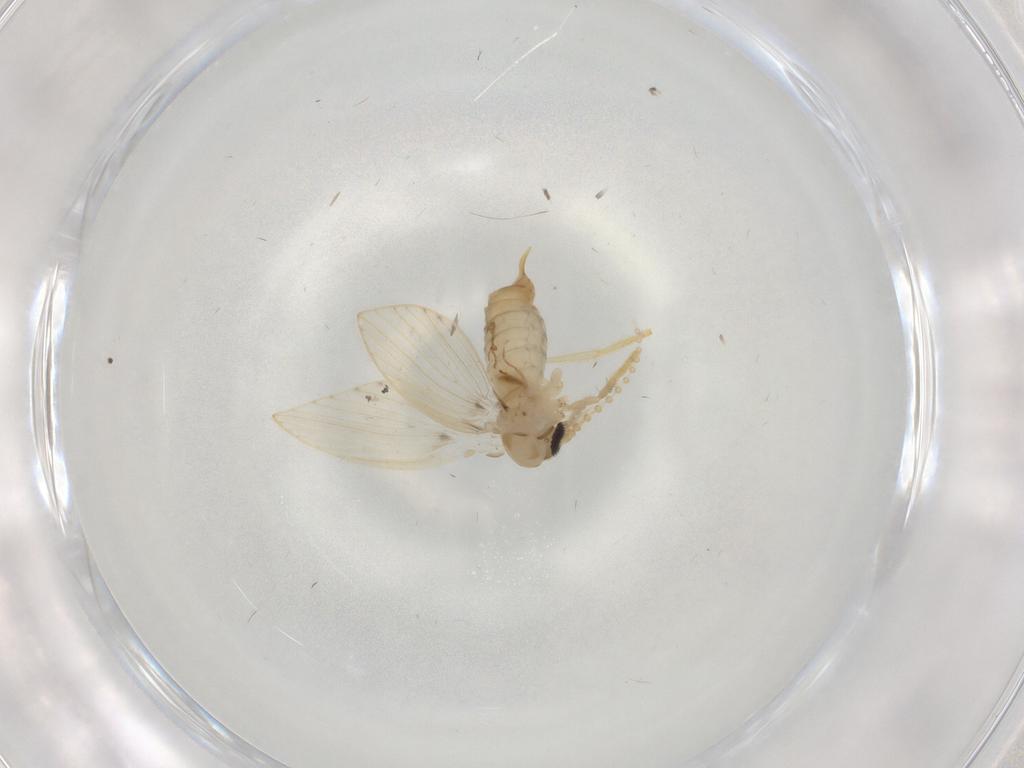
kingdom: Animalia
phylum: Arthropoda
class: Insecta
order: Diptera
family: Psychodidae
